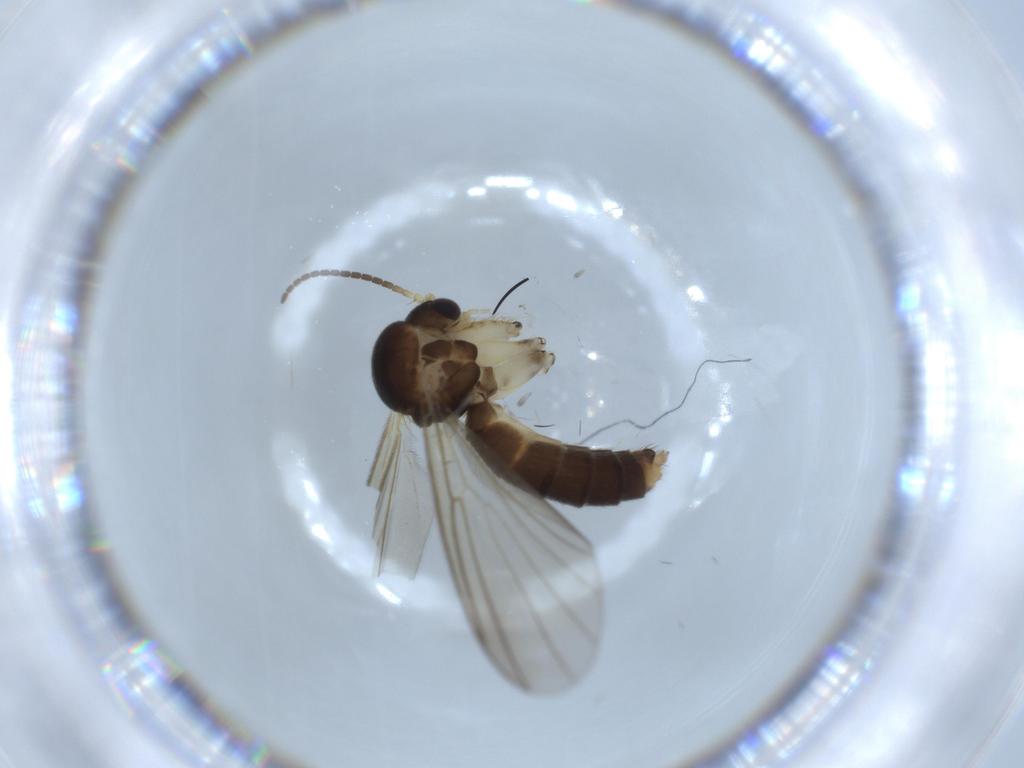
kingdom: Animalia
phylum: Arthropoda
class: Insecta
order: Diptera
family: Mycetophilidae
